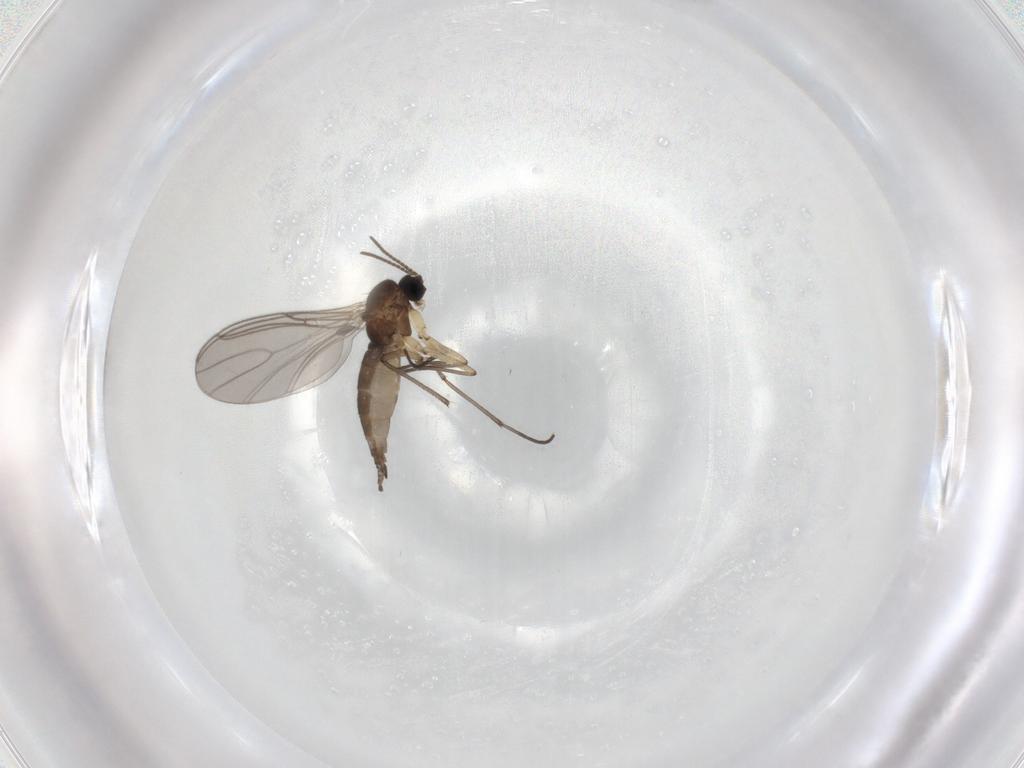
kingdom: Animalia
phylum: Arthropoda
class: Insecta
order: Diptera
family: Sciaridae
